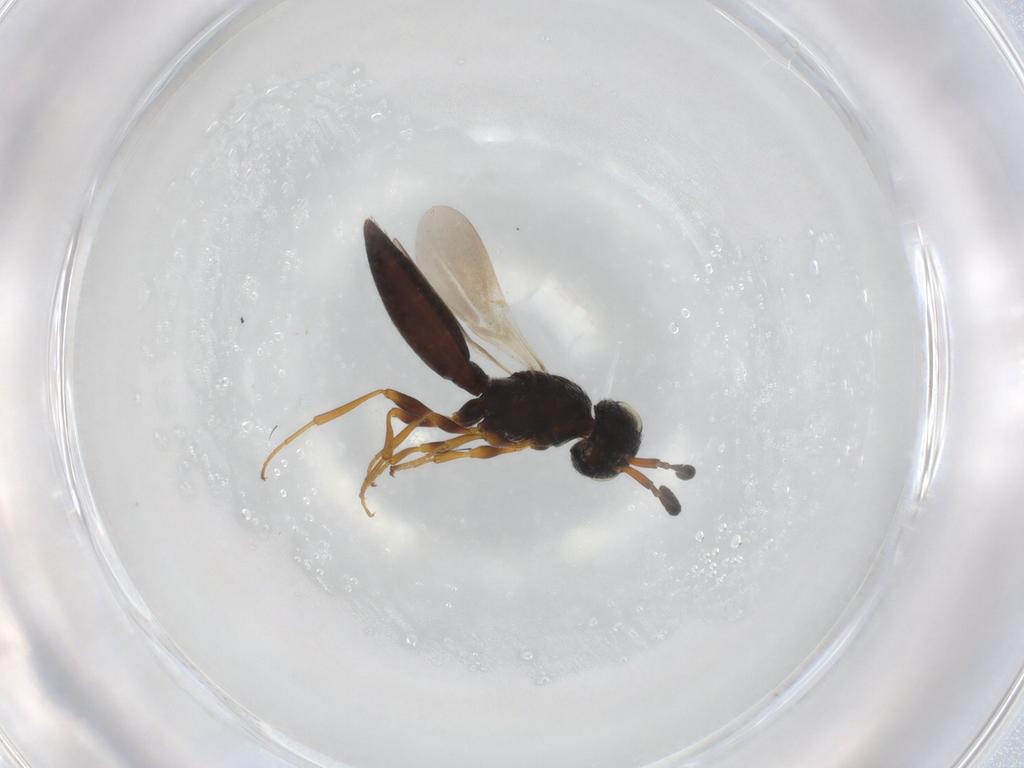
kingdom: Animalia
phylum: Arthropoda
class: Insecta
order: Hymenoptera
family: Scelionidae
